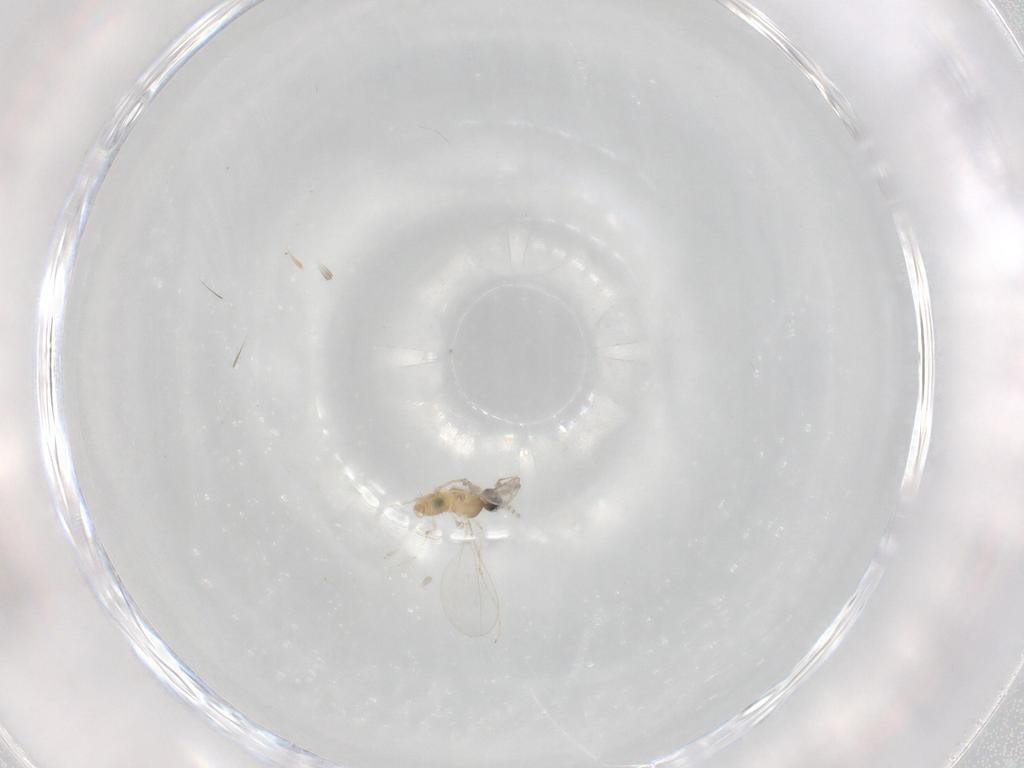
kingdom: Animalia
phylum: Arthropoda
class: Insecta
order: Diptera
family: Cecidomyiidae
